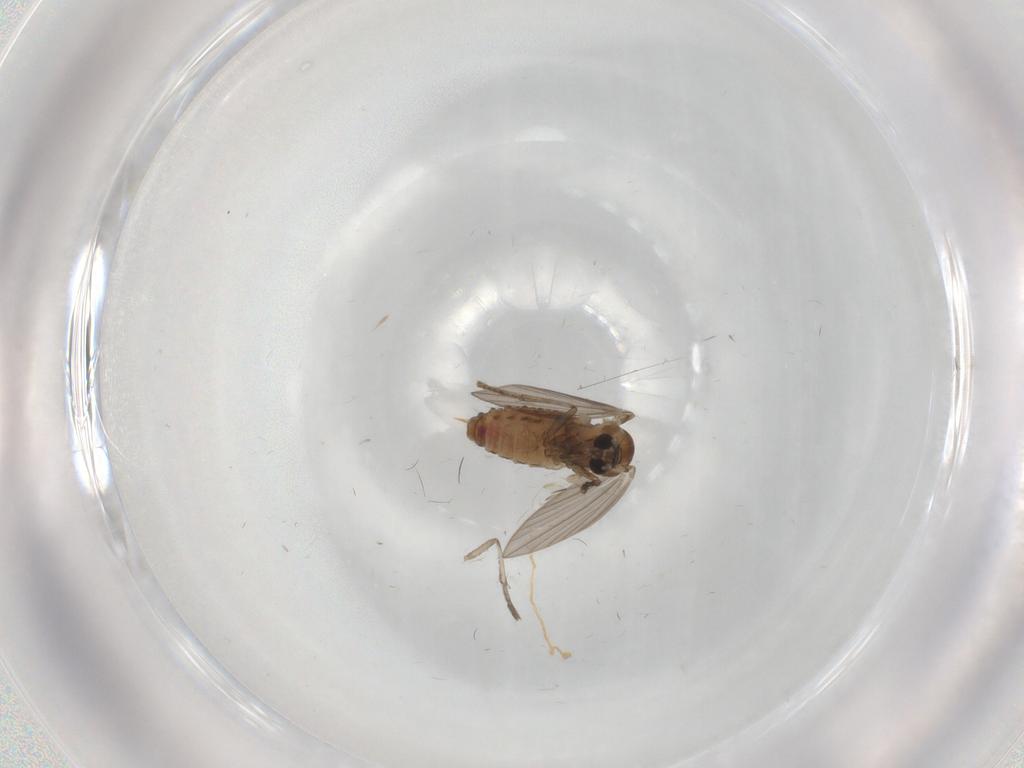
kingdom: Animalia
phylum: Arthropoda
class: Insecta
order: Diptera
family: Psychodidae
